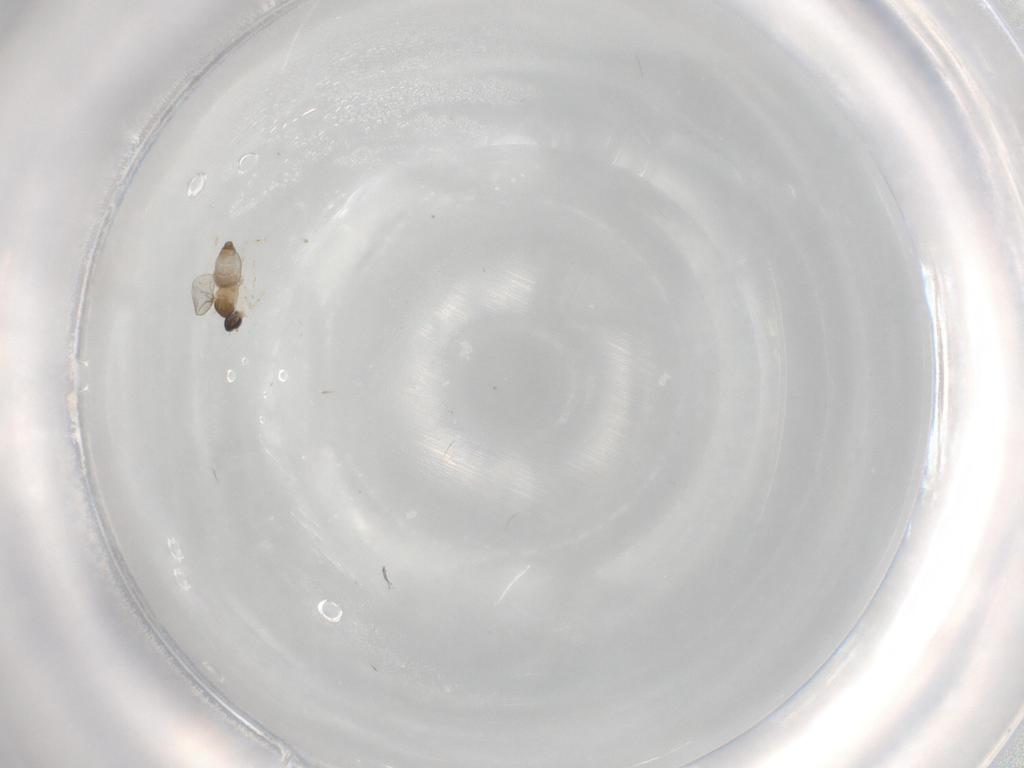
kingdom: Animalia
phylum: Arthropoda
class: Insecta
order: Diptera
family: Cecidomyiidae
